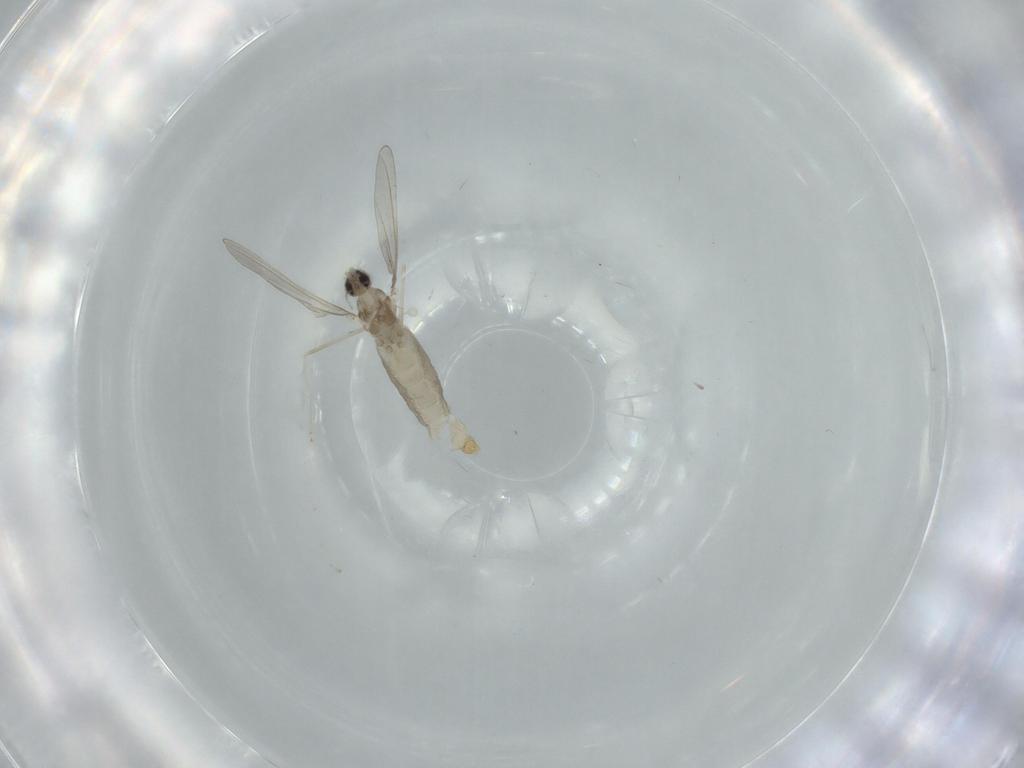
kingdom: Animalia
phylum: Arthropoda
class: Insecta
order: Diptera
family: Cecidomyiidae
